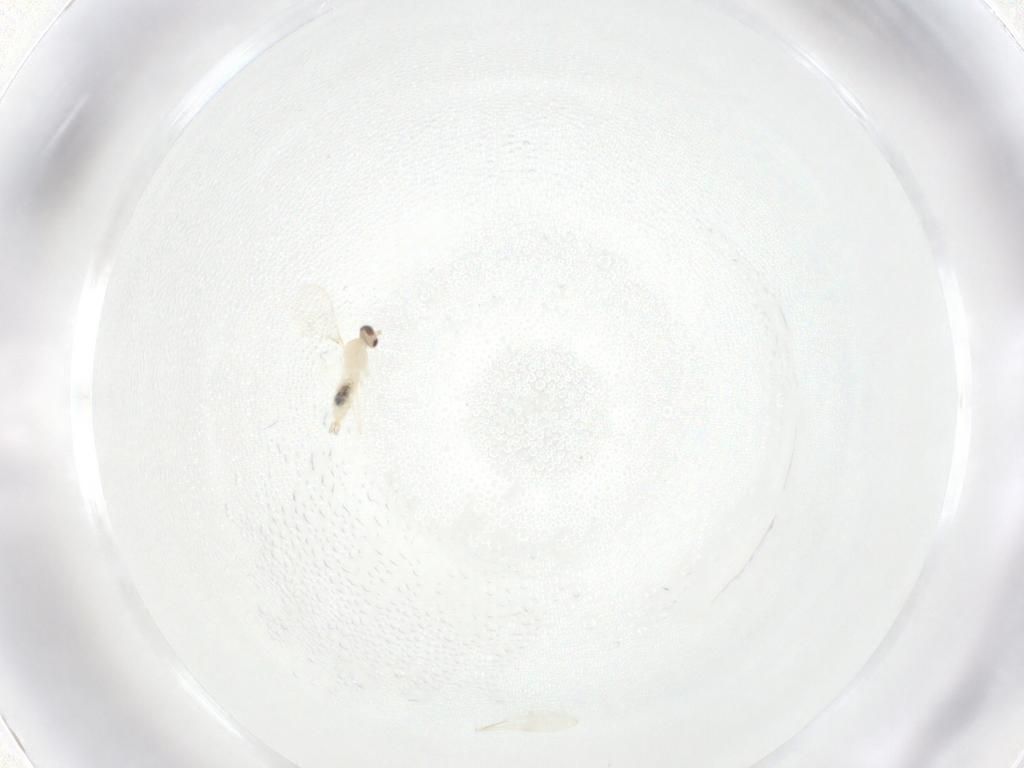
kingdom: Animalia
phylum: Arthropoda
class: Insecta
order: Diptera
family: Cecidomyiidae
